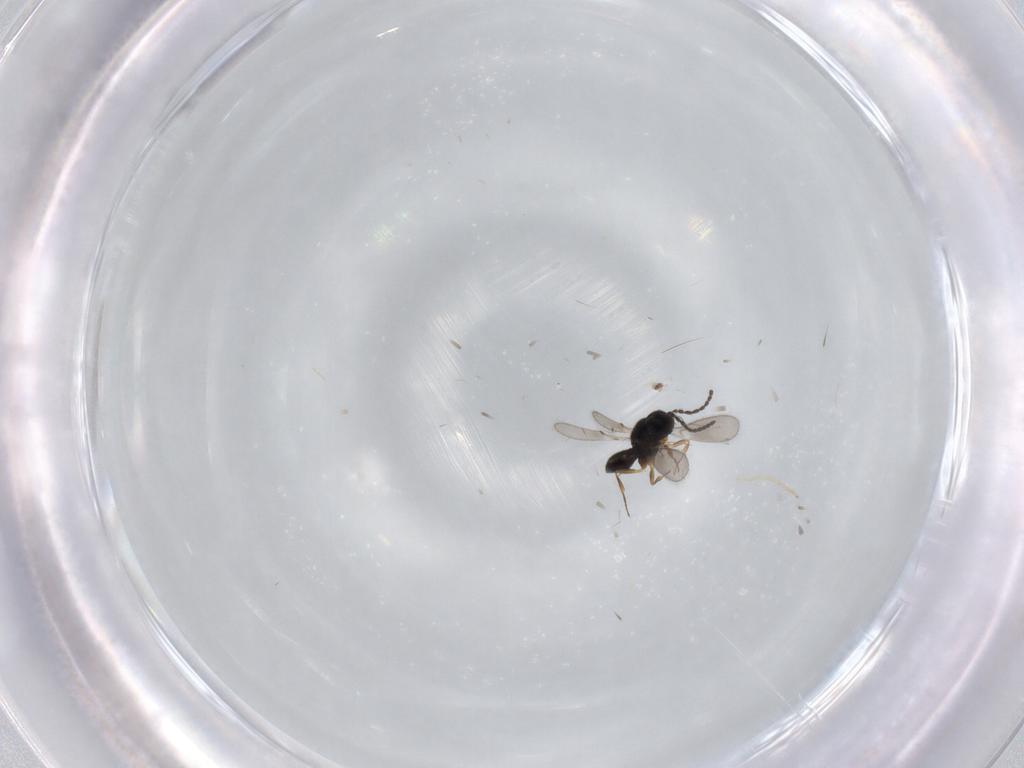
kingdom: Animalia
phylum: Arthropoda
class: Insecta
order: Hymenoptera
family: Scelionidae
